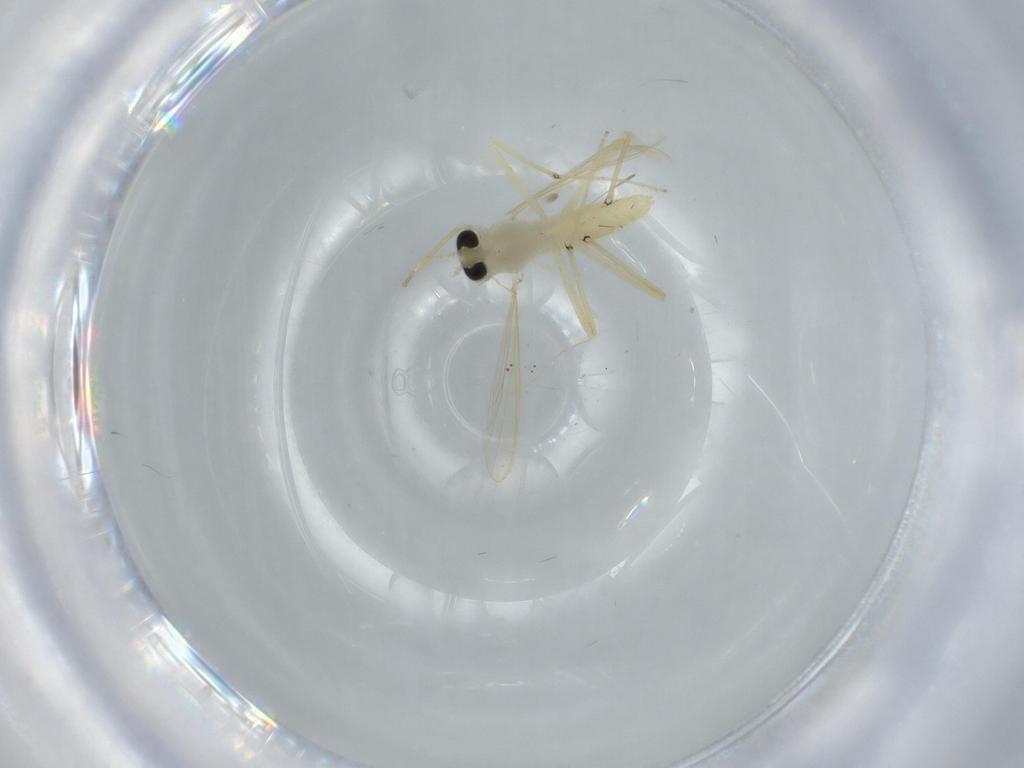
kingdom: Animalia
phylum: Arthropoda
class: Insecta
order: Diptera
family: Chironomidae
